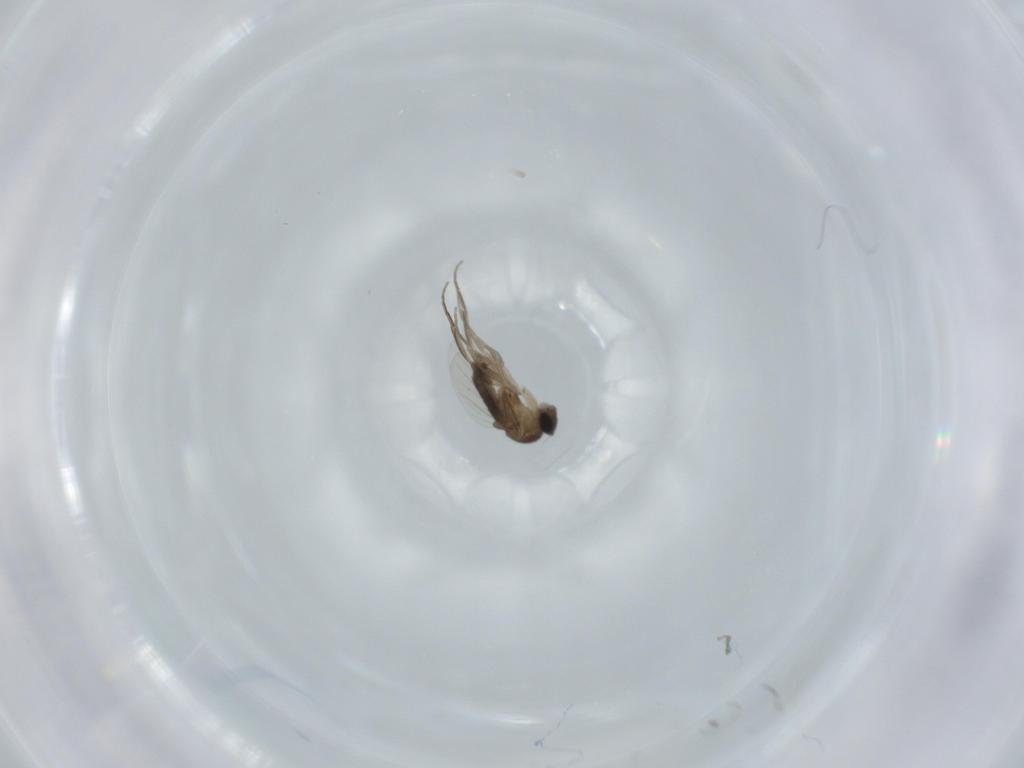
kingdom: Animalia
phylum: Arthropoda
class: Insecta
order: Diptera
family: Phoridae
